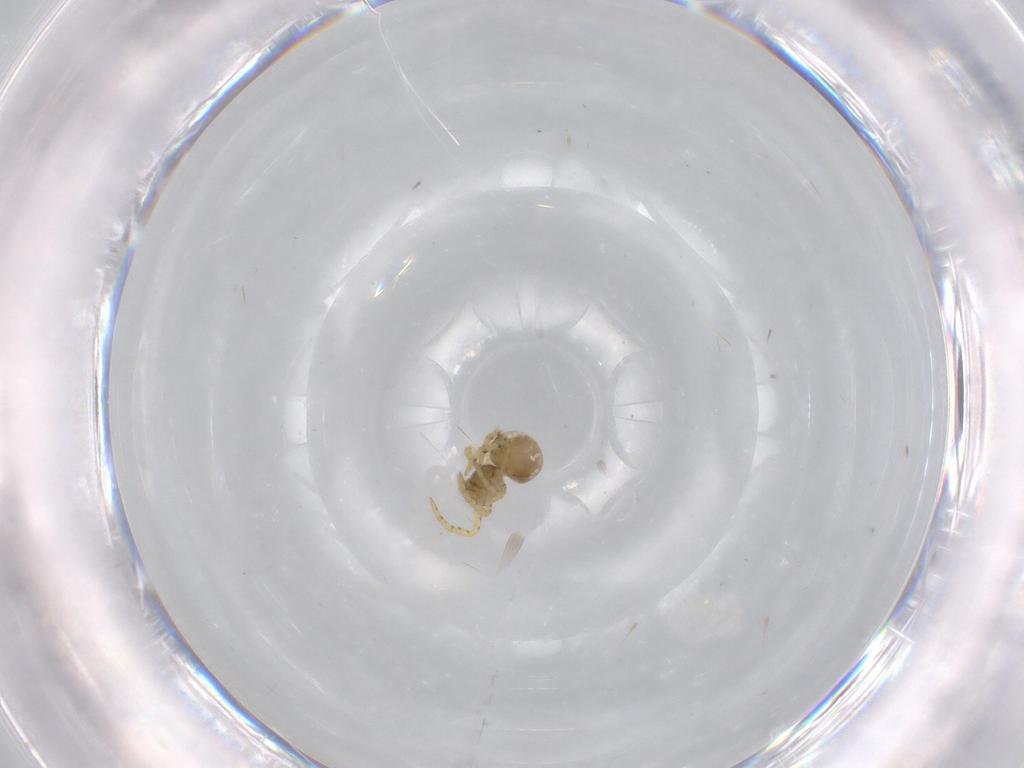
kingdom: Animalia
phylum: Arthropoda
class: Arachnida
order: Araneae
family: Theridiidae
